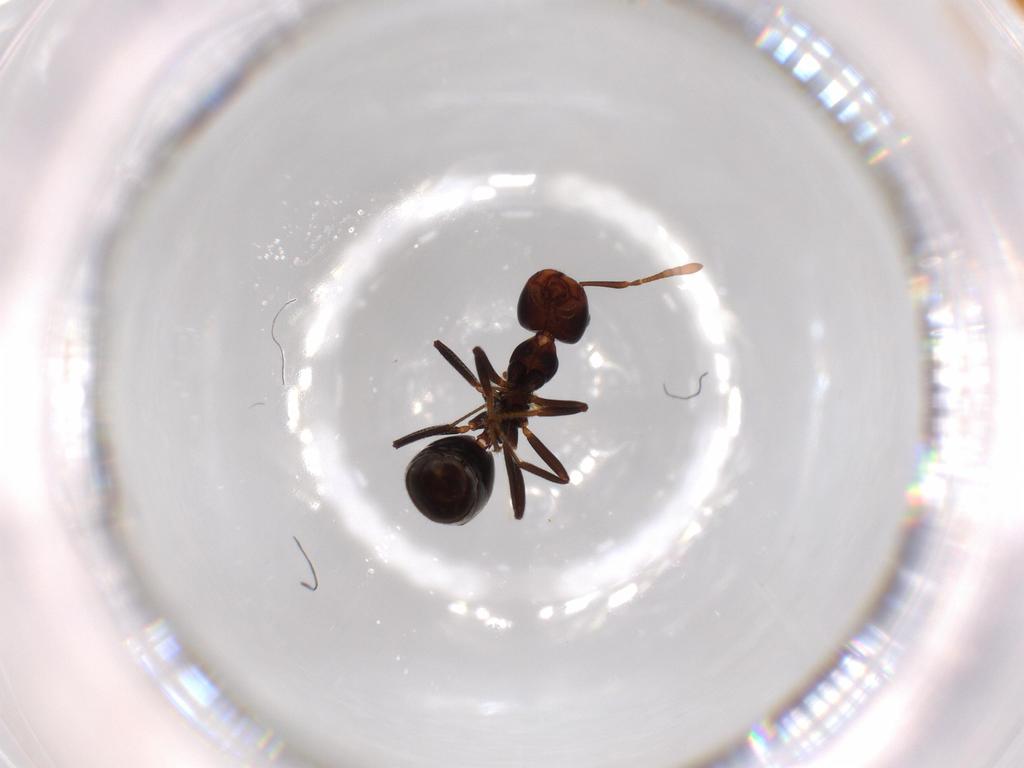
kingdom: Animalia
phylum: Arthropoda
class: Insecta
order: Hymenoptera
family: Formicidae
